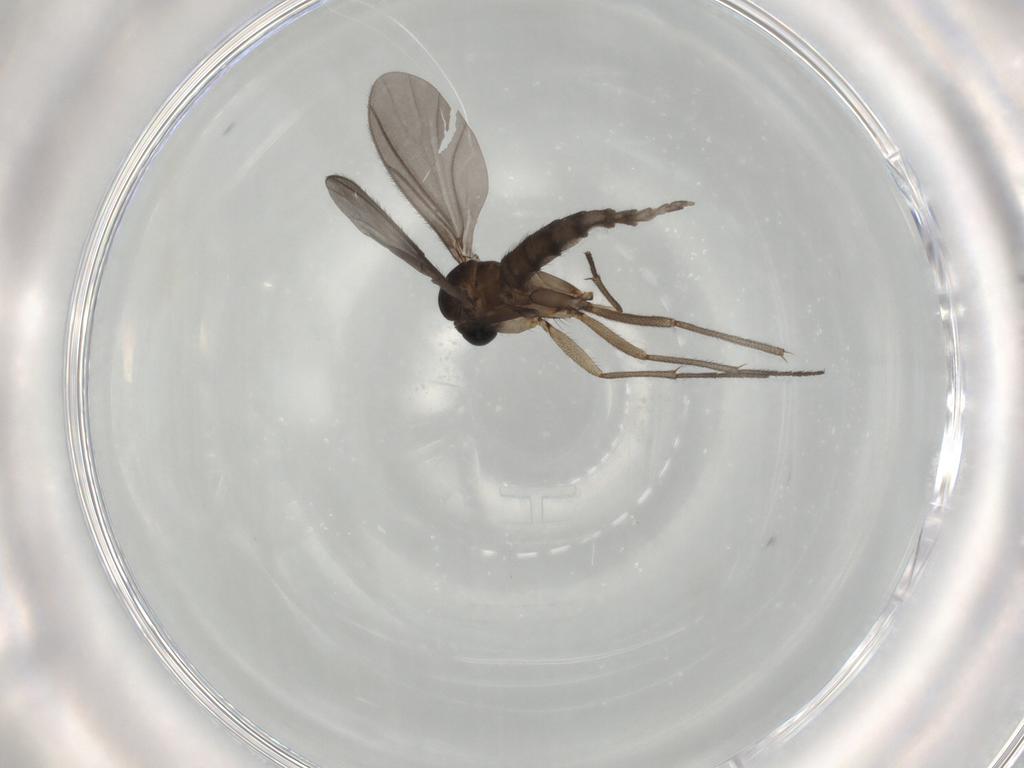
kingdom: Animalia
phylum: Arthropoda
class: Insecta
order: Diptera
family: Sciaridae
